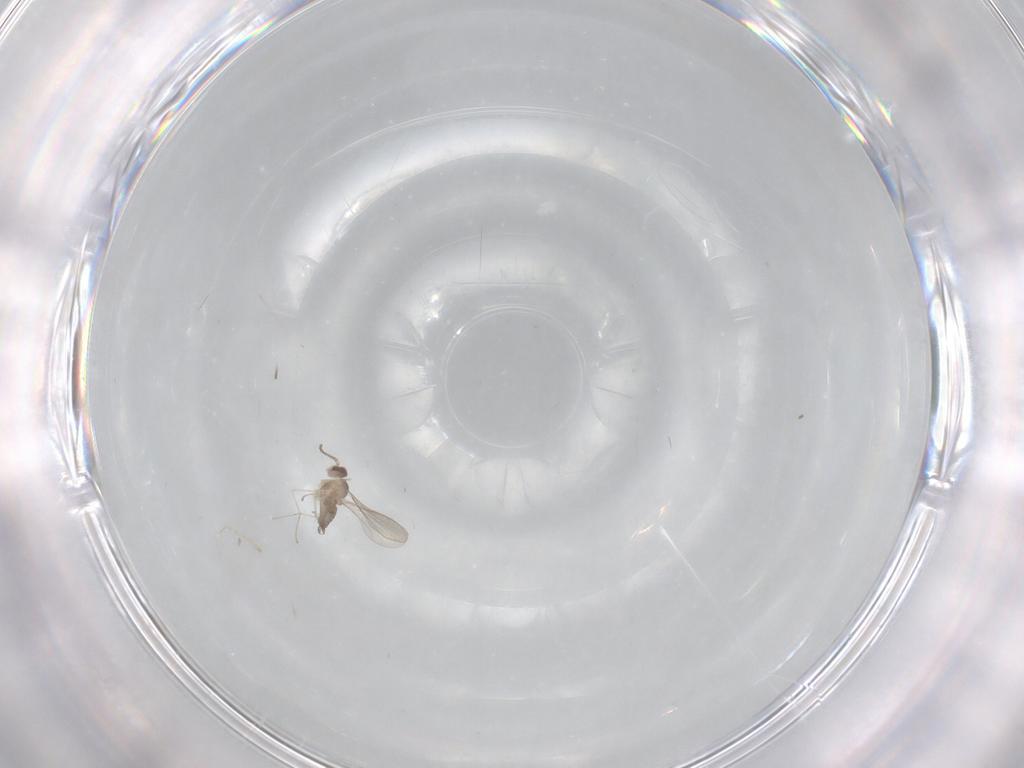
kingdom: Animalia
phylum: Arthropoda
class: Insecta
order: Diptera
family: Cecidomyiidae
